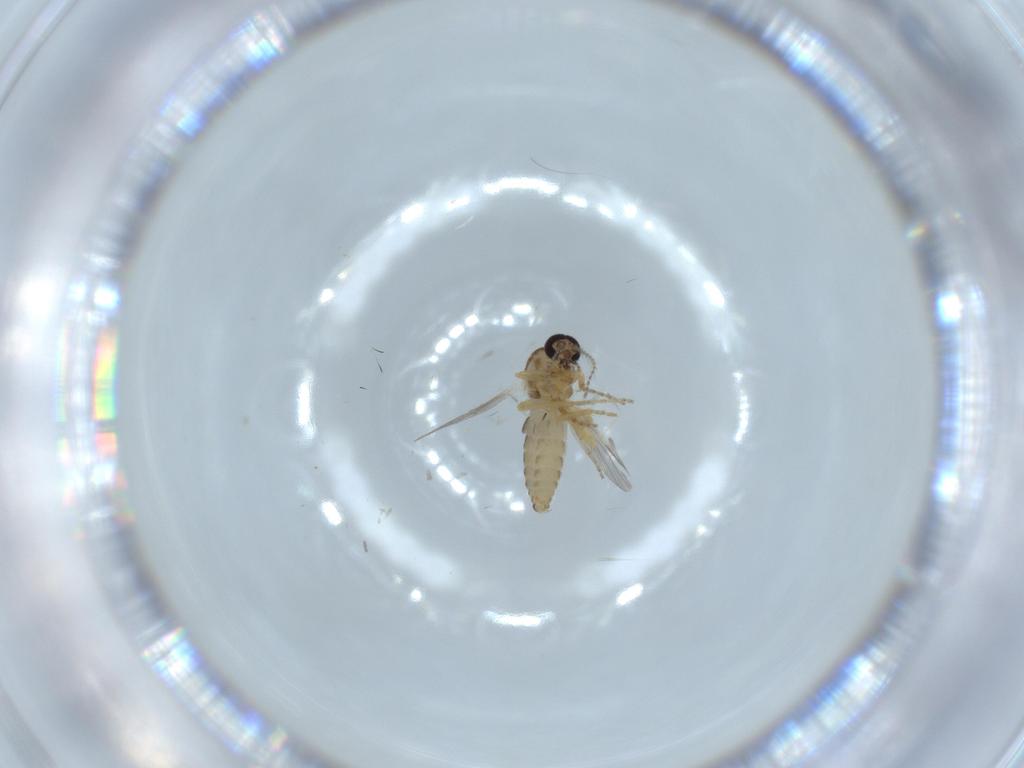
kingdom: Animalia
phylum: Arthropoda
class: Insecta
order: Diptera
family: Ceratopogonidae
